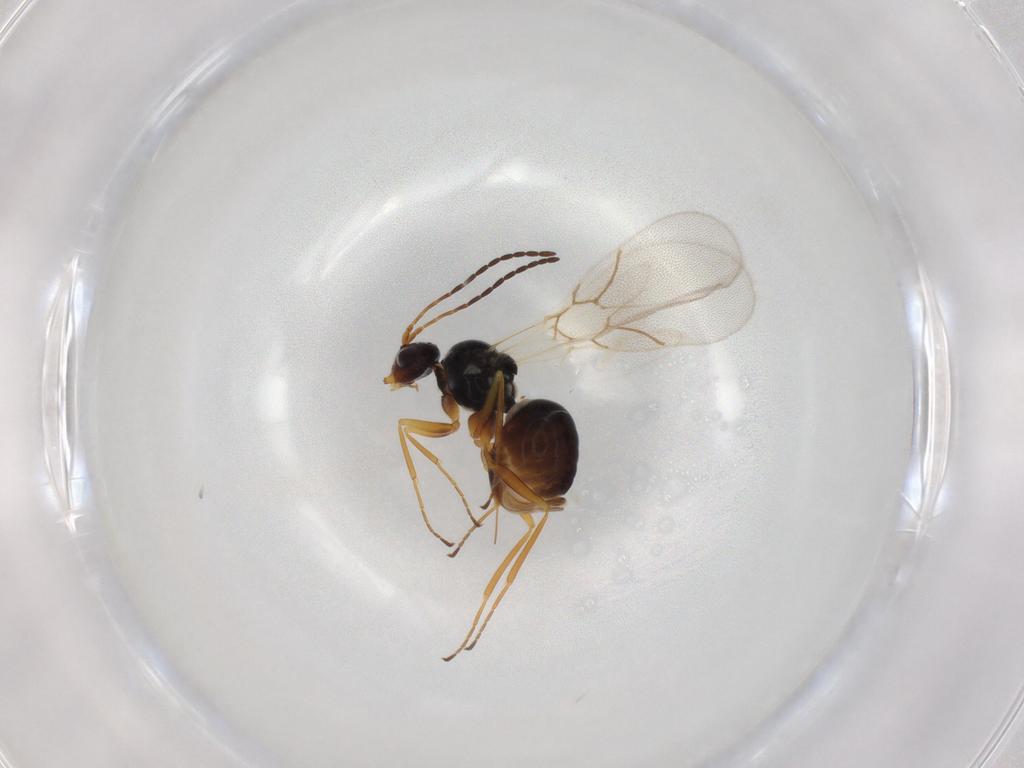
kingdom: Animalia
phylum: Arthropoda
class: Insecta
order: Hymenoptera
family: Figitidae
